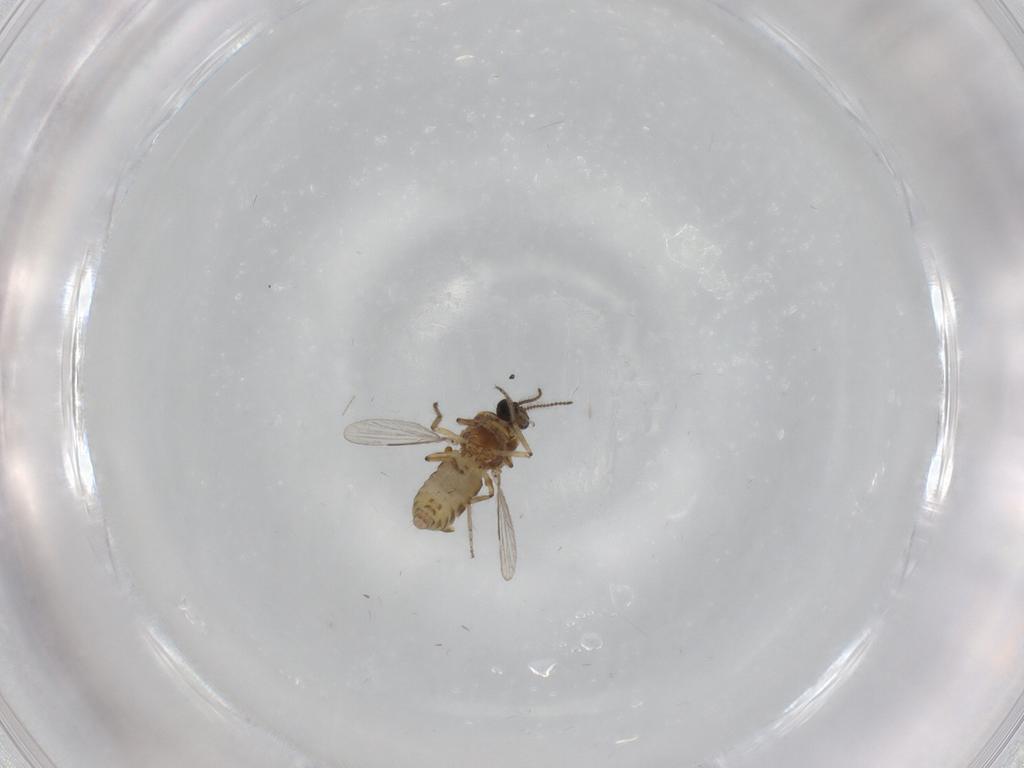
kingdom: Animalia
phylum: Arthropoda
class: Insecta
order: Diptera
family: Ceratopogonidae
